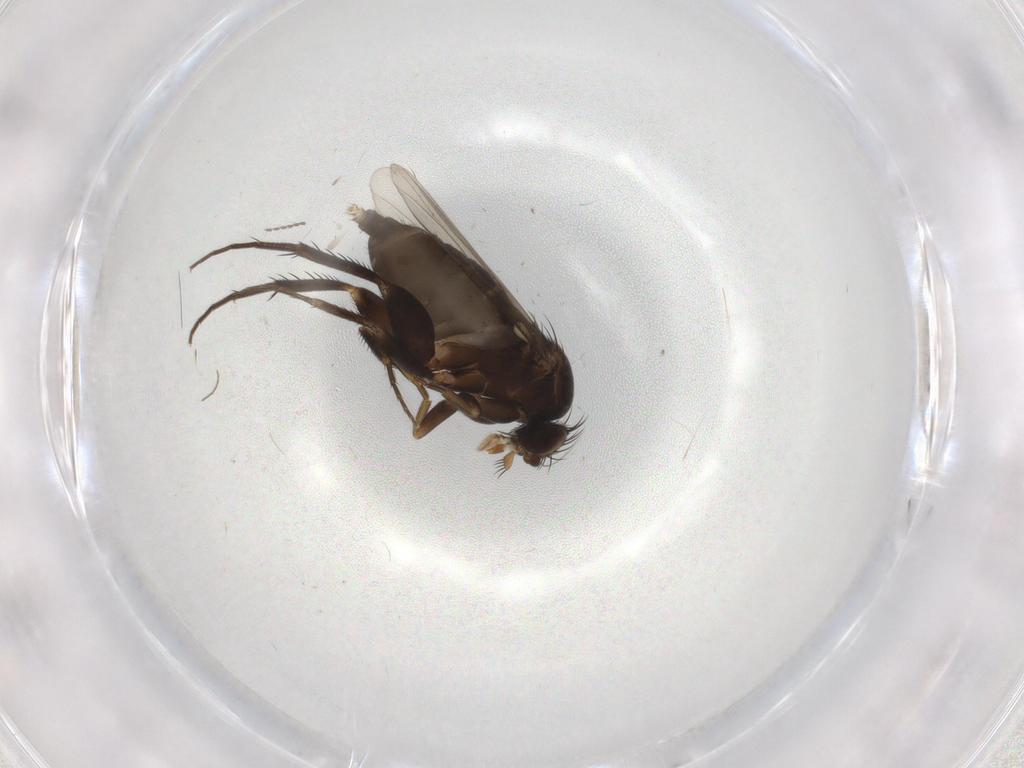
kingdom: Animalia
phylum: Arthropoda
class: Insecta
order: Diptera
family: Phoridae
